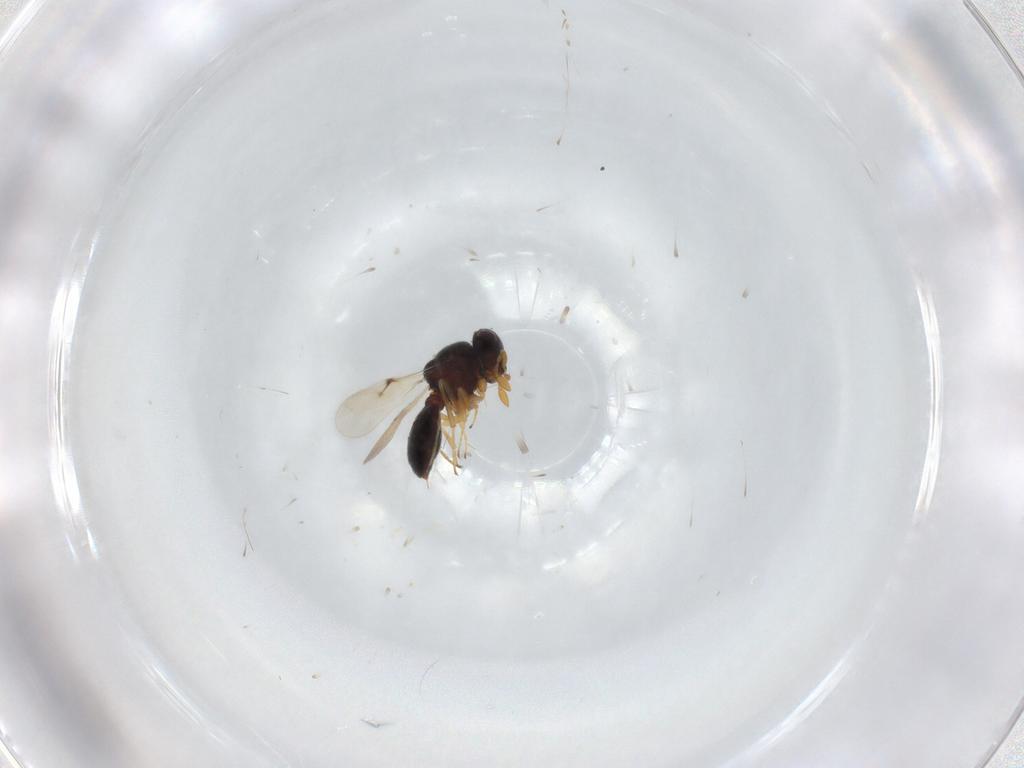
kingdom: Animalia
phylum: Arthropoda
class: Insecta
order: Hymenoptera
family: Scelionidae
